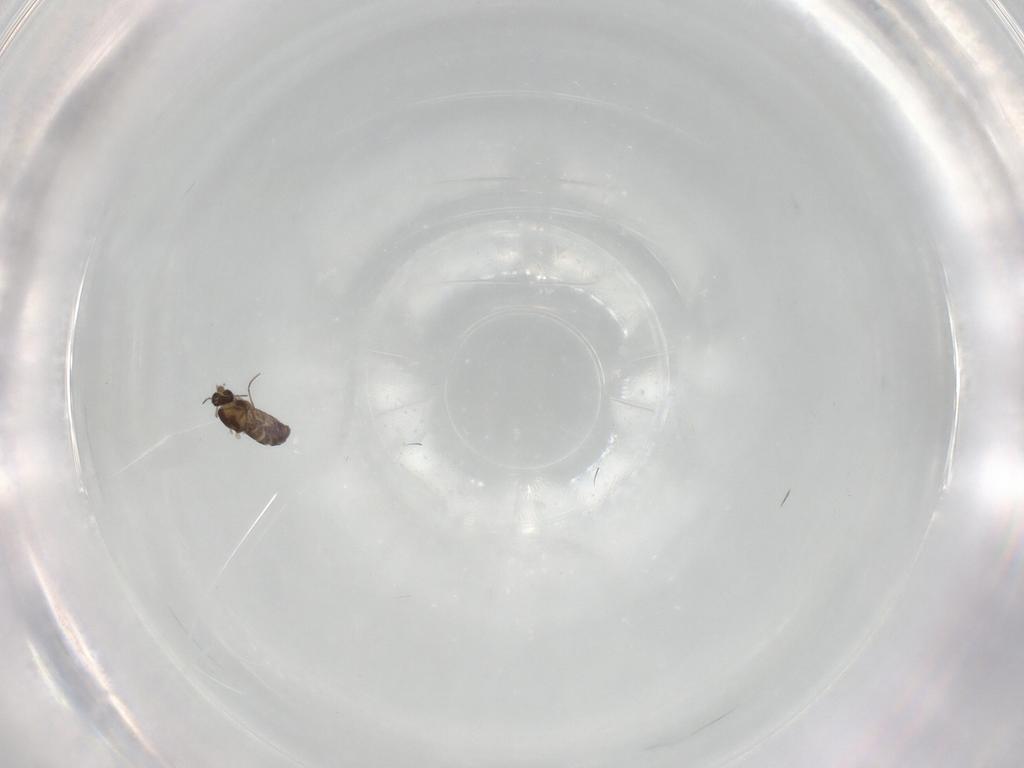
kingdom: Animalia
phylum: Arthropoda
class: Insecta
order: Diptera
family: Chironomidae
